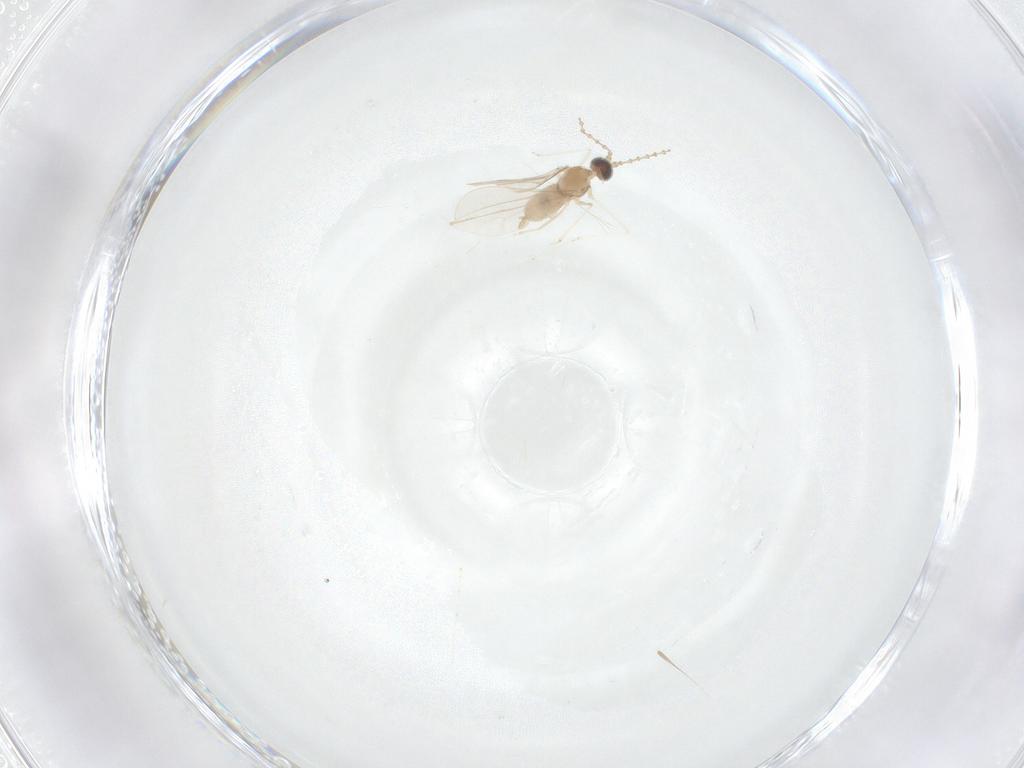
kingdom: Animalia
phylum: Arthropoda
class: Insecta
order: Diptera
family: Cecidomyiidae
